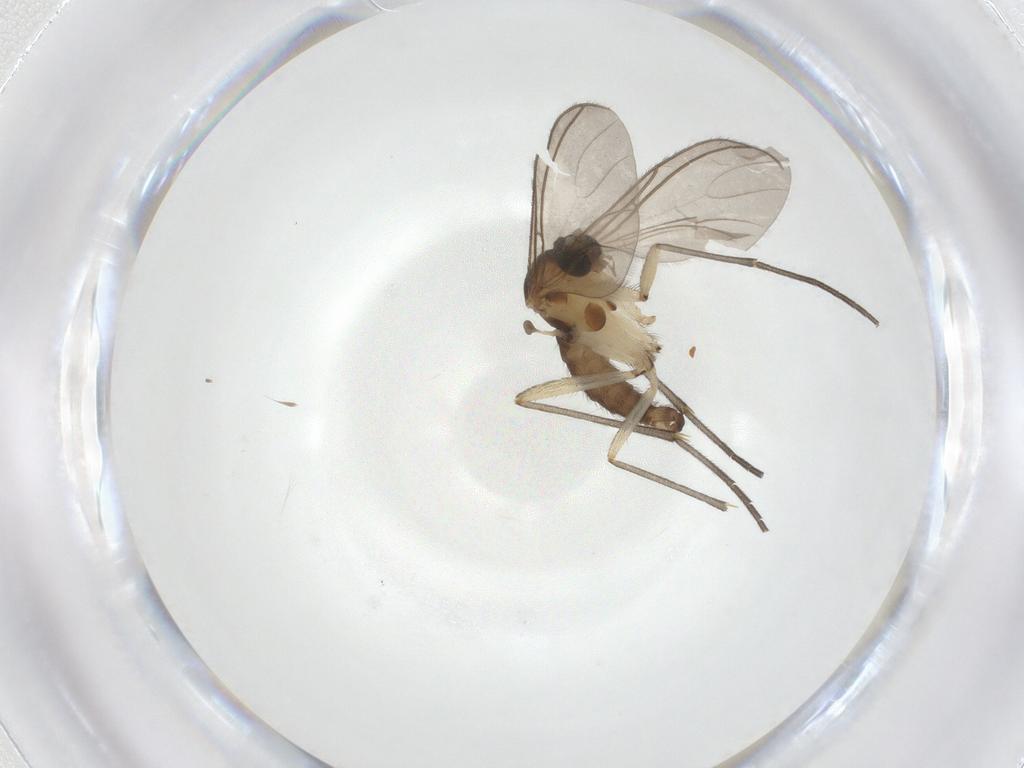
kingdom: Animalia
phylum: Arthropoda
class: Insecta
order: Diptera
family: Sciaridae
